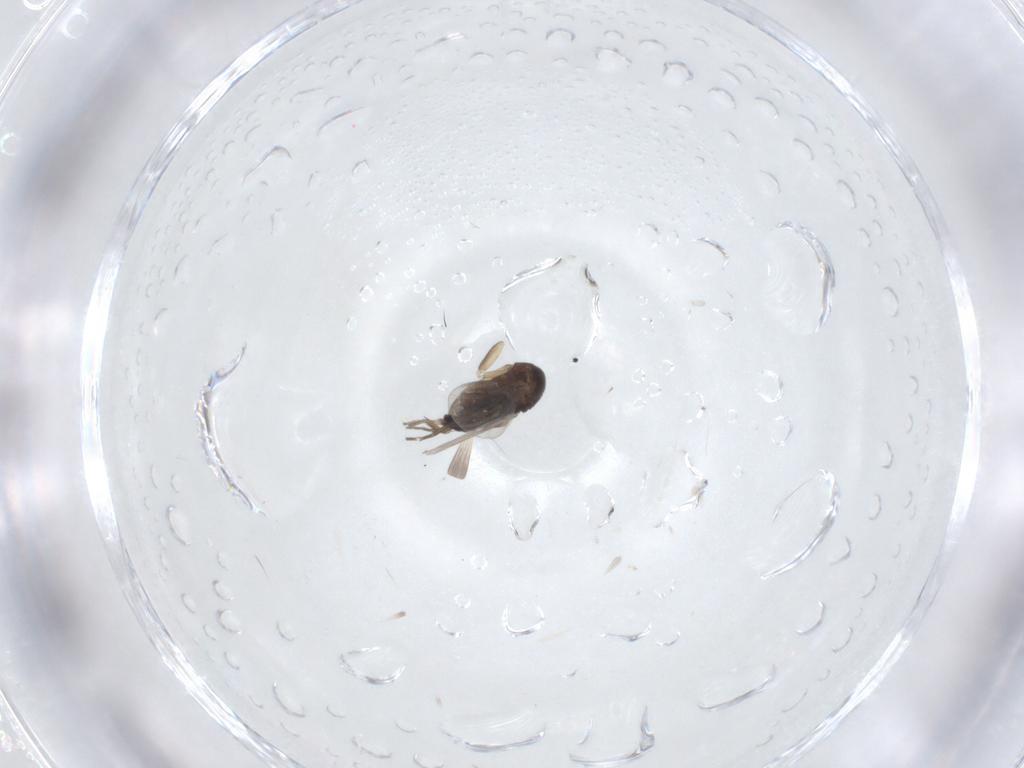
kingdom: Animalia
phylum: Arthropoda
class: Insecta
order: Diptera
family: Phoridae
